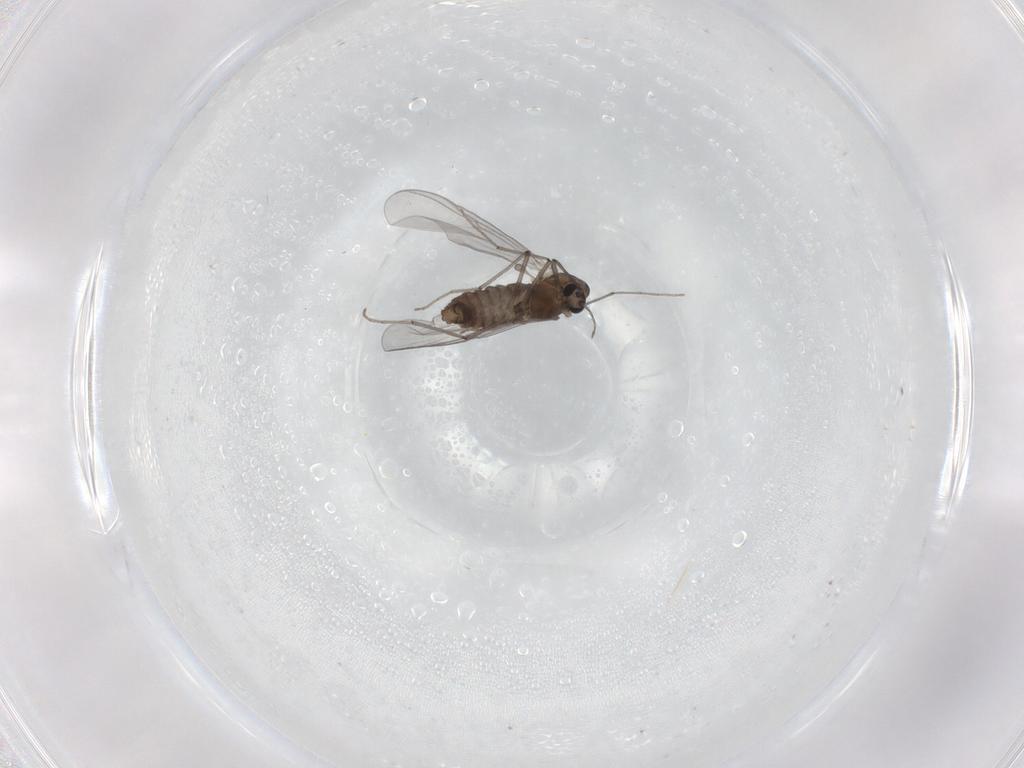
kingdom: Animalia
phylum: Arthropoda
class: Insecta
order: Diptera
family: Chironomidae
